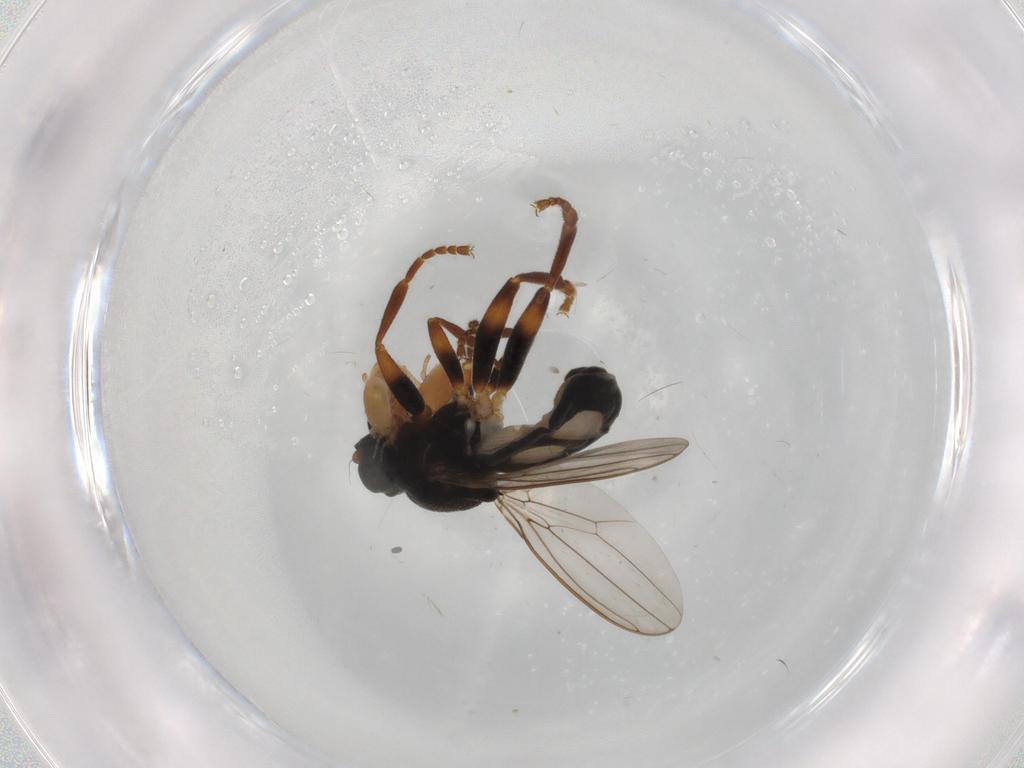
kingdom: Animalia
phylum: Arthropoda
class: Insecta
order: Diptera
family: Sphaeroceridae
